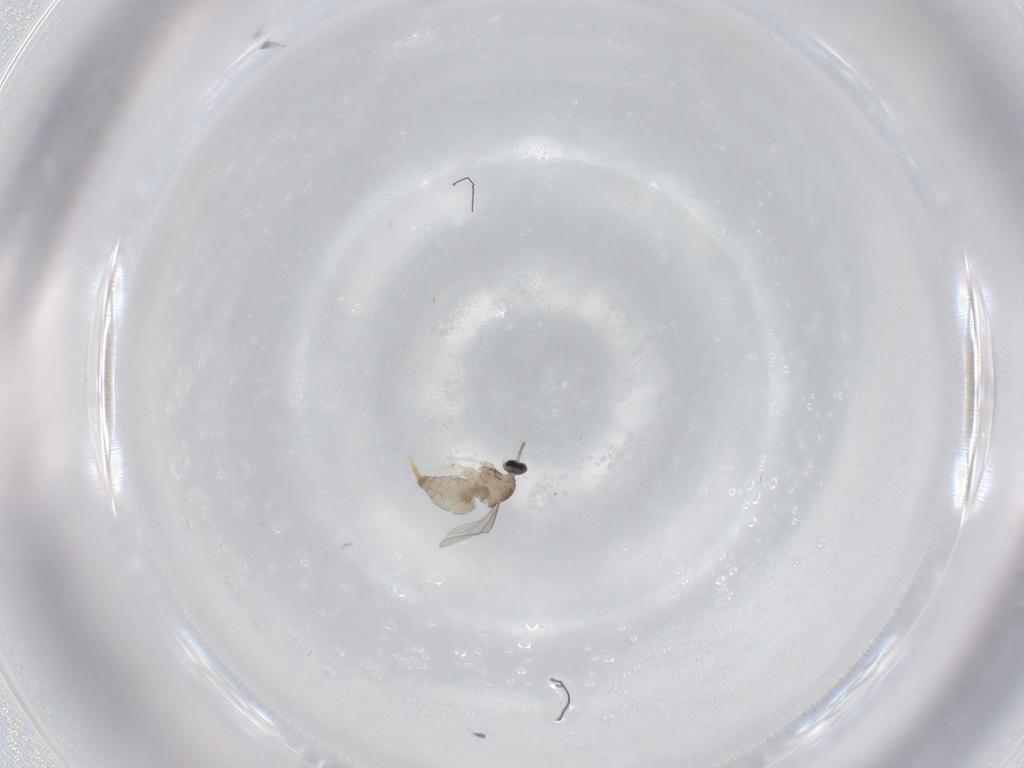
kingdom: Animalia
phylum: Arthropoda
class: Insecta
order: Diptera
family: Cecidomyiidae
